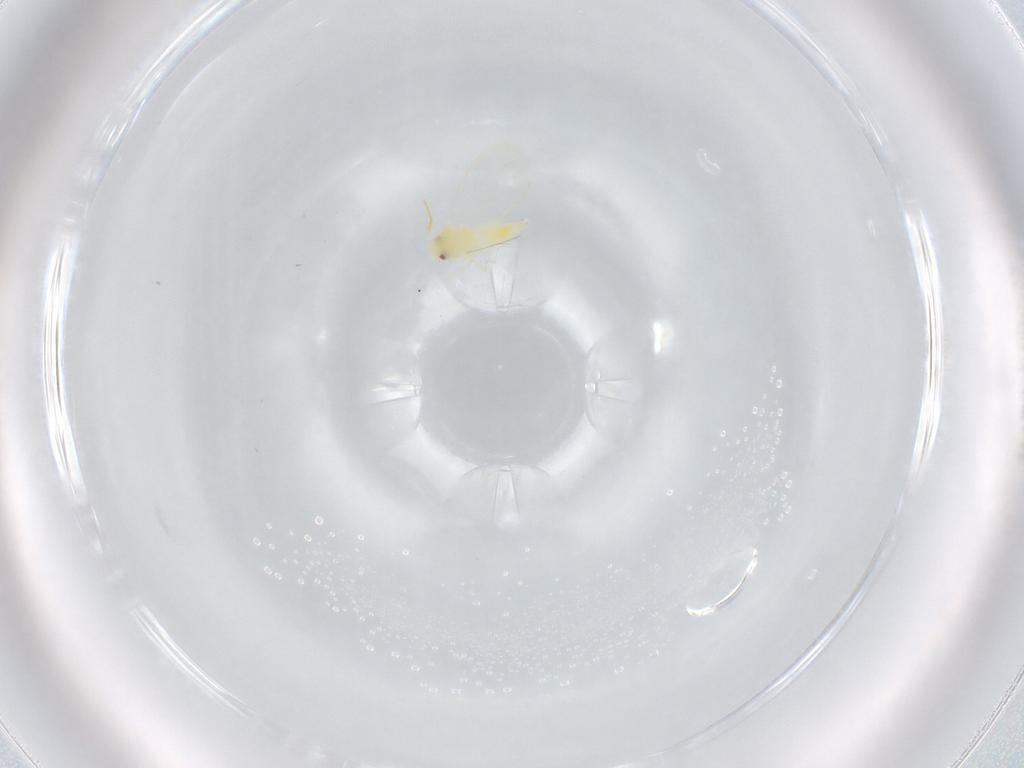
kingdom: Animalia
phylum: Arthropoda
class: Insecta
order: Hemiptera
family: Aleyrodidae
